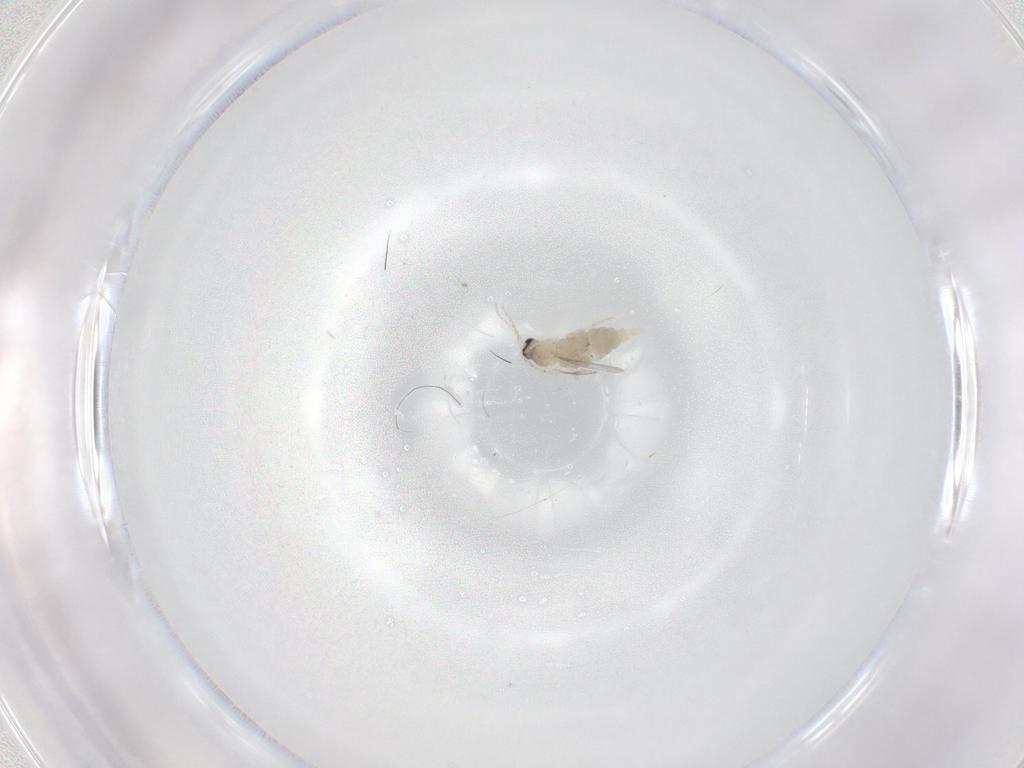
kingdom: Animalia
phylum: Arthropoda
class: Insecta
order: Diptera
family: Cecidomyiidae
